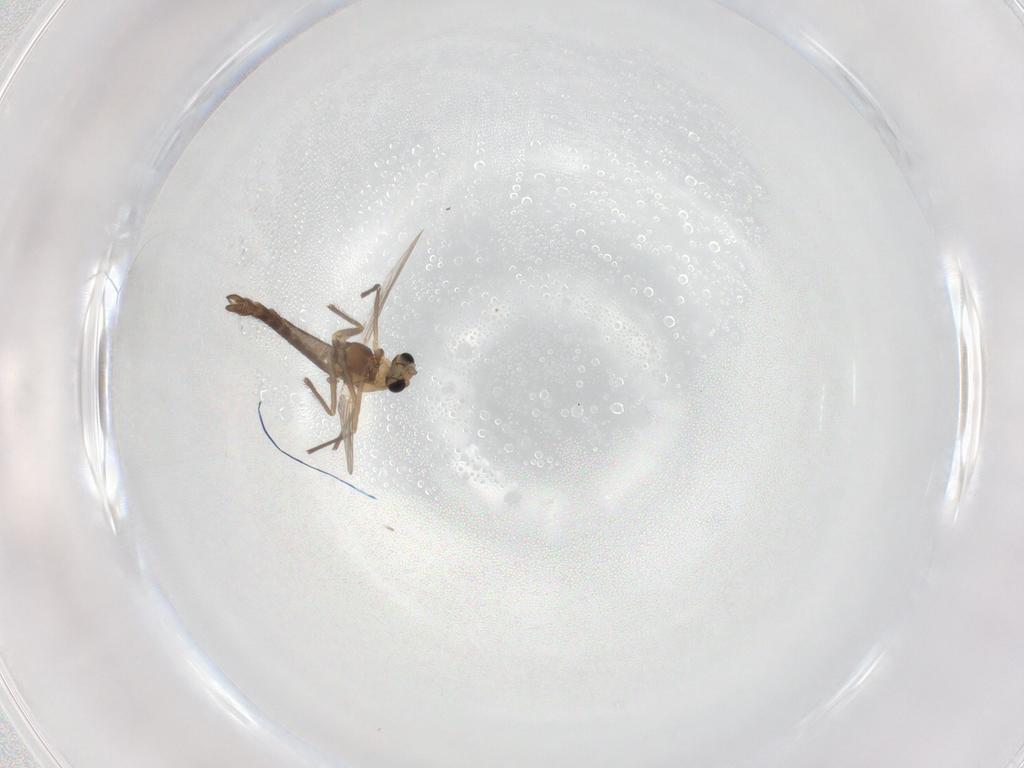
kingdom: Animalia
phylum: Arthropoda
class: Insecta
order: Diptera
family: Chironomidae
